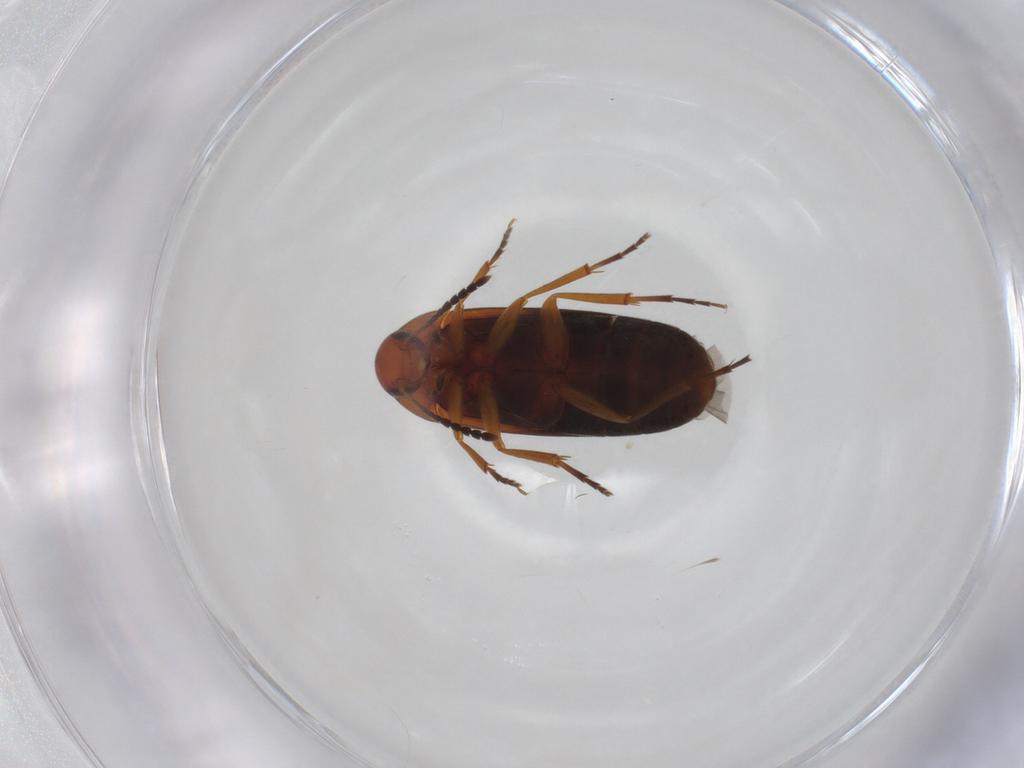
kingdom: Animalia
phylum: Arthropoda
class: Insecta
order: Coleoptera
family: Scraptiidae
